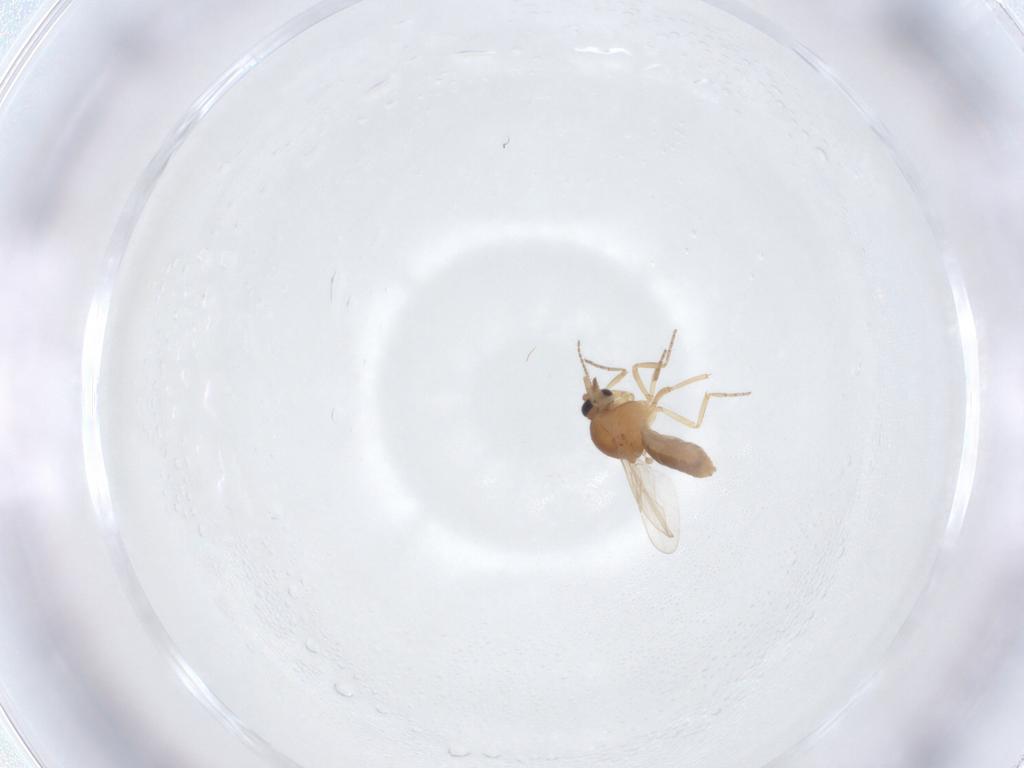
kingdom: Animalia
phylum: Arthropoda
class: Insecta
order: Diptera
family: Ceratopogonidae
